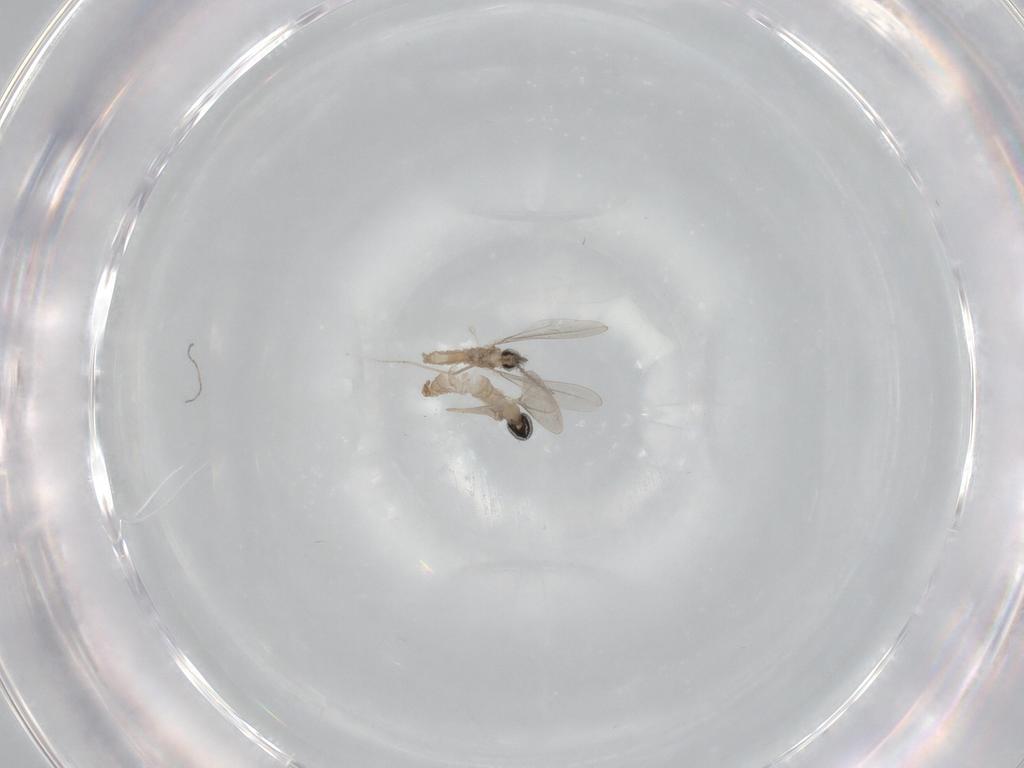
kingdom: Animalia
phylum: Arthropoda
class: Insecta
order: Diptera
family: Cecidomyiidae
